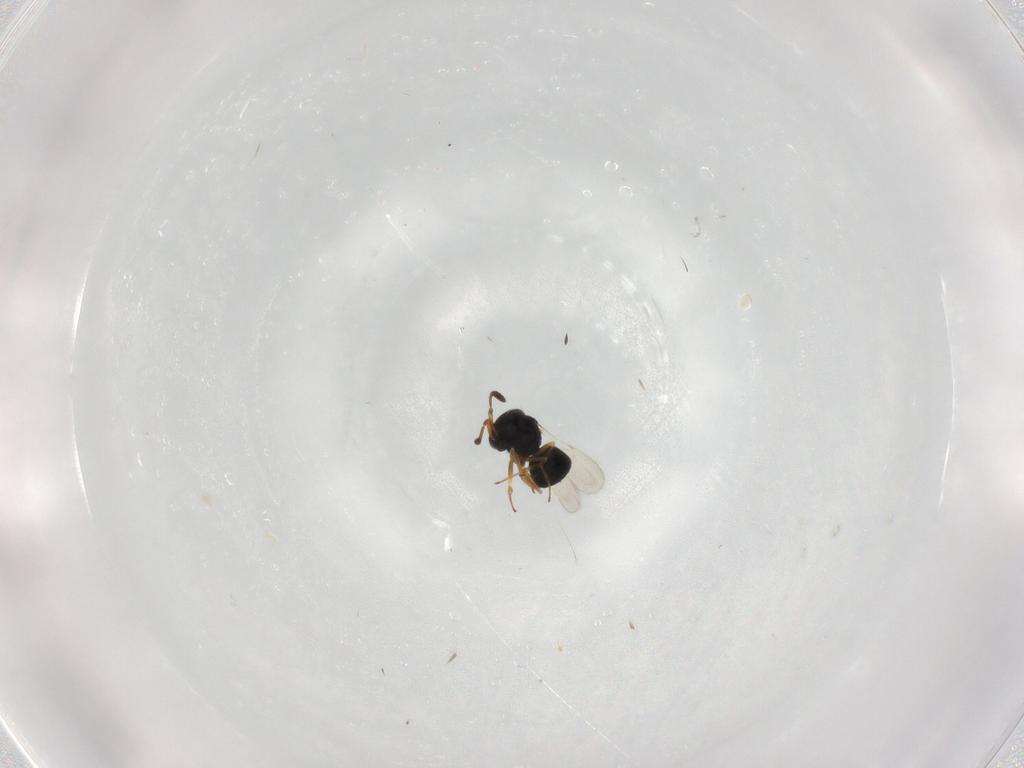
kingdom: Animalia
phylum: Arthropoda
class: Insecta
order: Hymenoptera
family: Scelionidae
